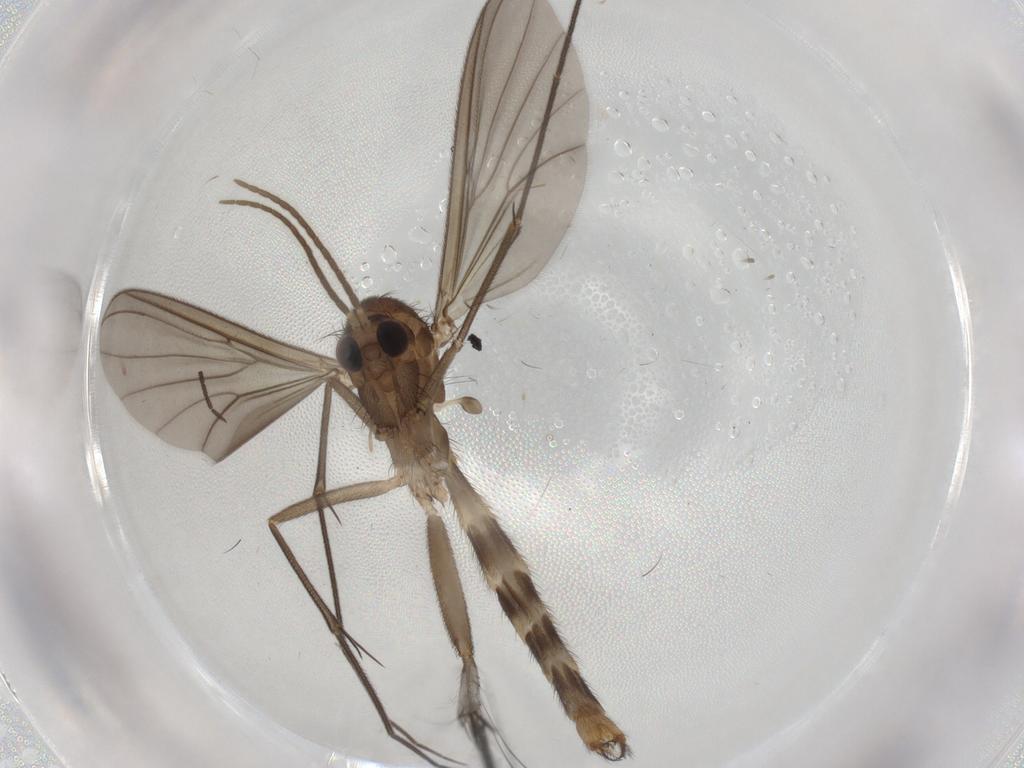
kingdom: Animalia
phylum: Arthropoda
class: Insecta
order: Diptera
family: Mycetophilidae
